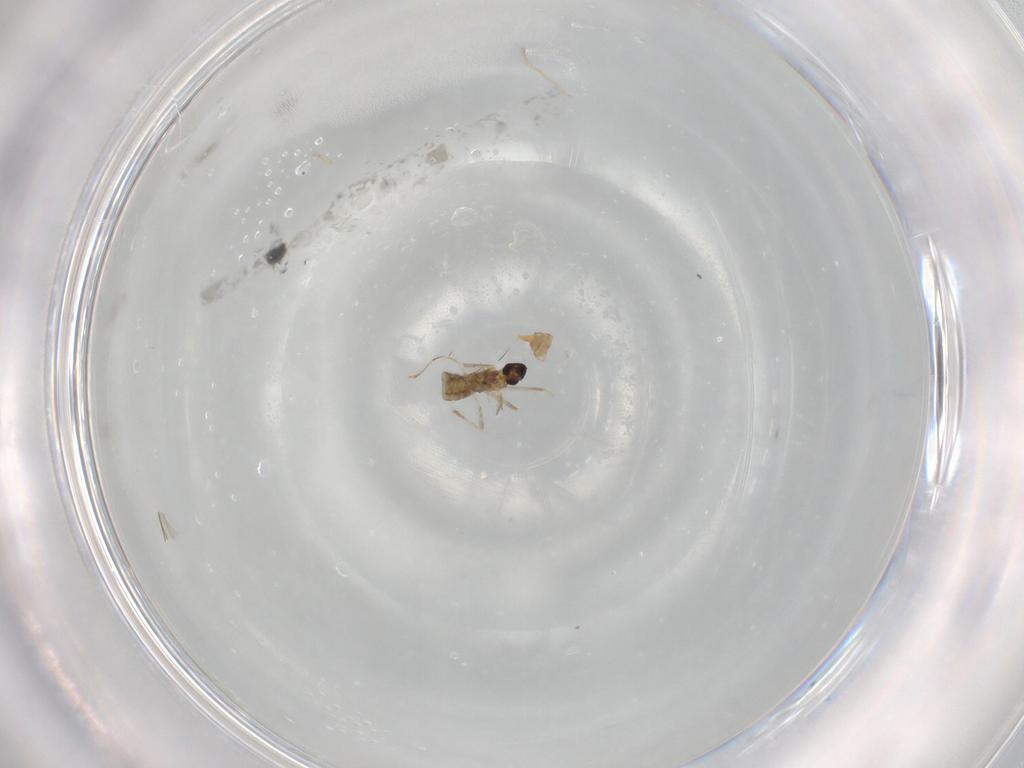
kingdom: Animalia
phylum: Arthropoda
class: Insecta
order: Diptera
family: Cecidomyiidae
